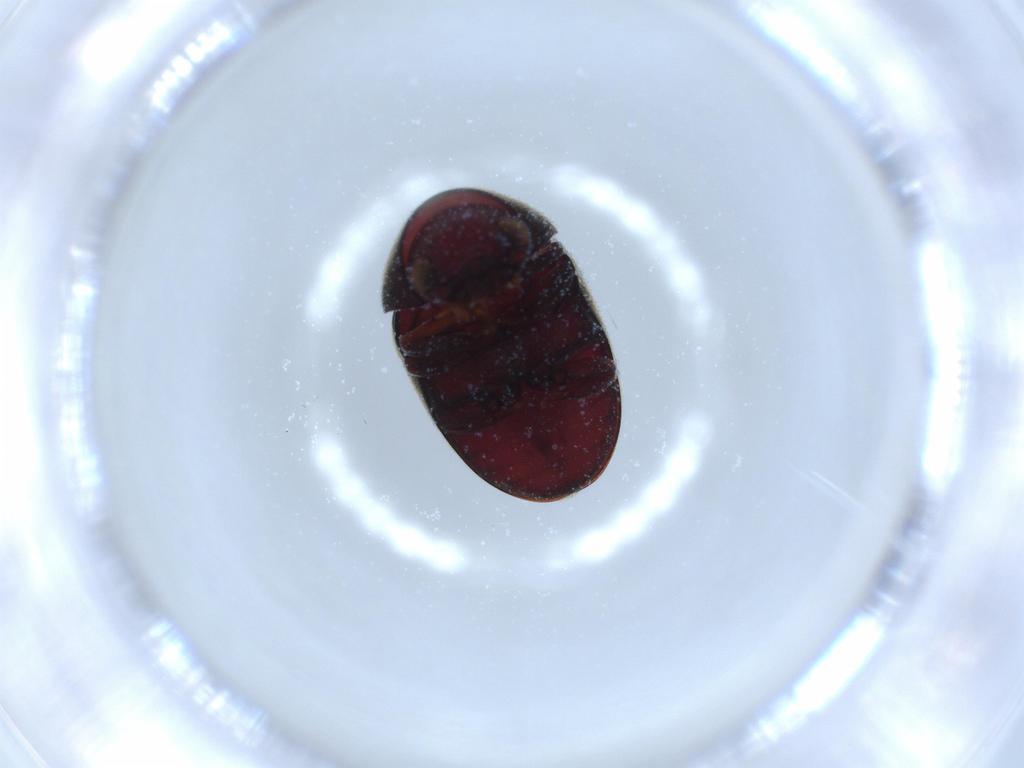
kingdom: Animalia
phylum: Arthropoda
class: Insecta
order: Coleoptera
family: Ptinidae
